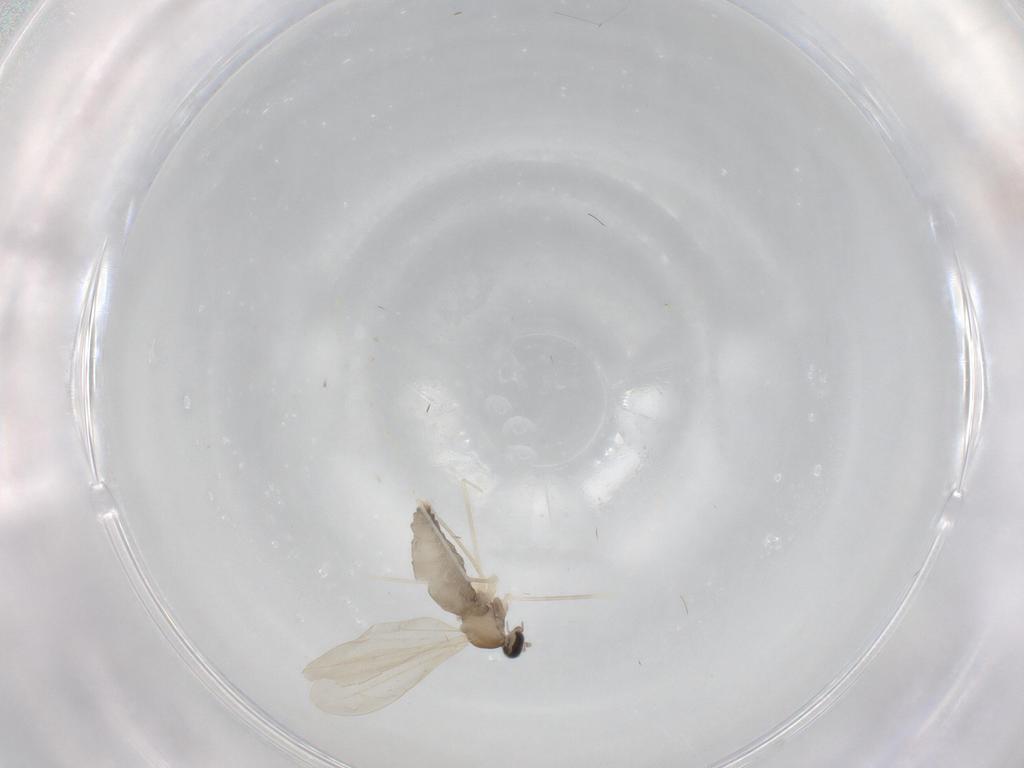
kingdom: Animalia
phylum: Arthropoda
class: Insecta
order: Diptera
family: Cecidomyiidae
